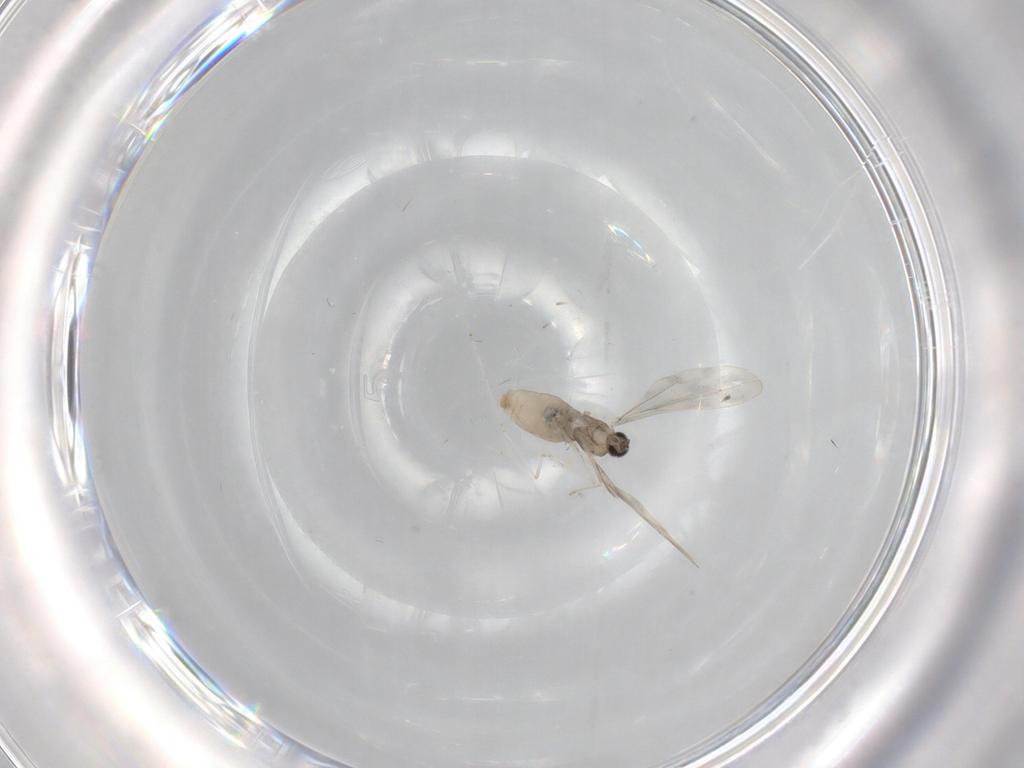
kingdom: Animalia
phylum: Arthropoda
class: Insecta
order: Diptera
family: Cecidomyiidae
